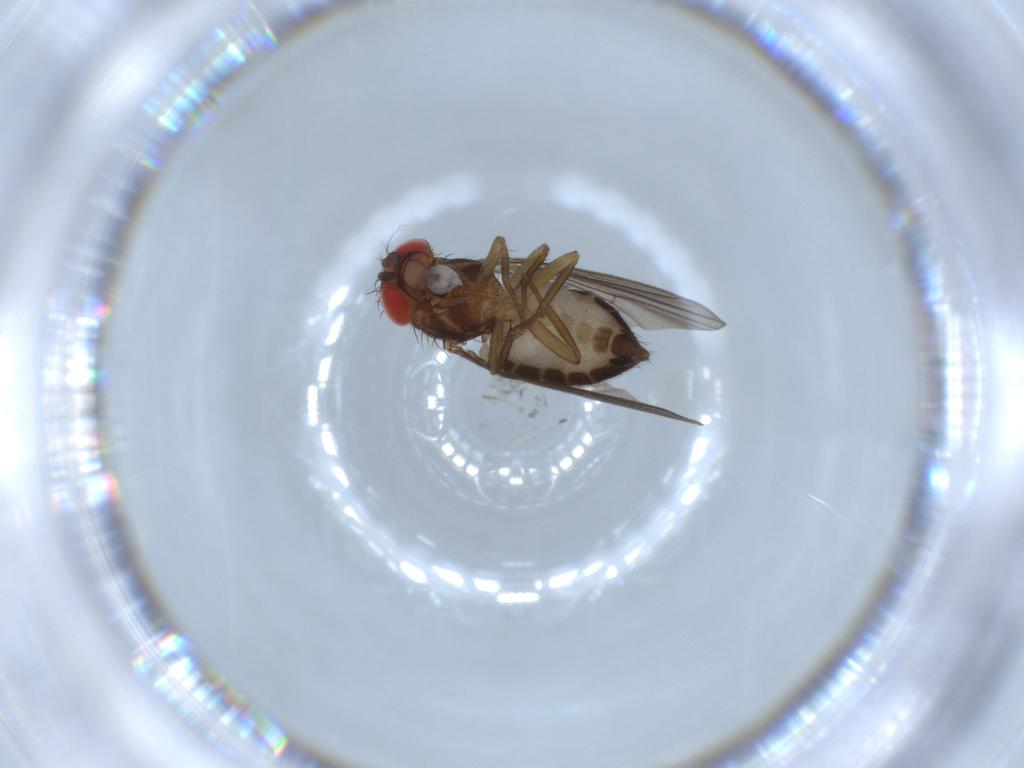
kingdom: Animalia
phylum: Arthropoda
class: Insecta
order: Diptera
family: Drosophilidae
